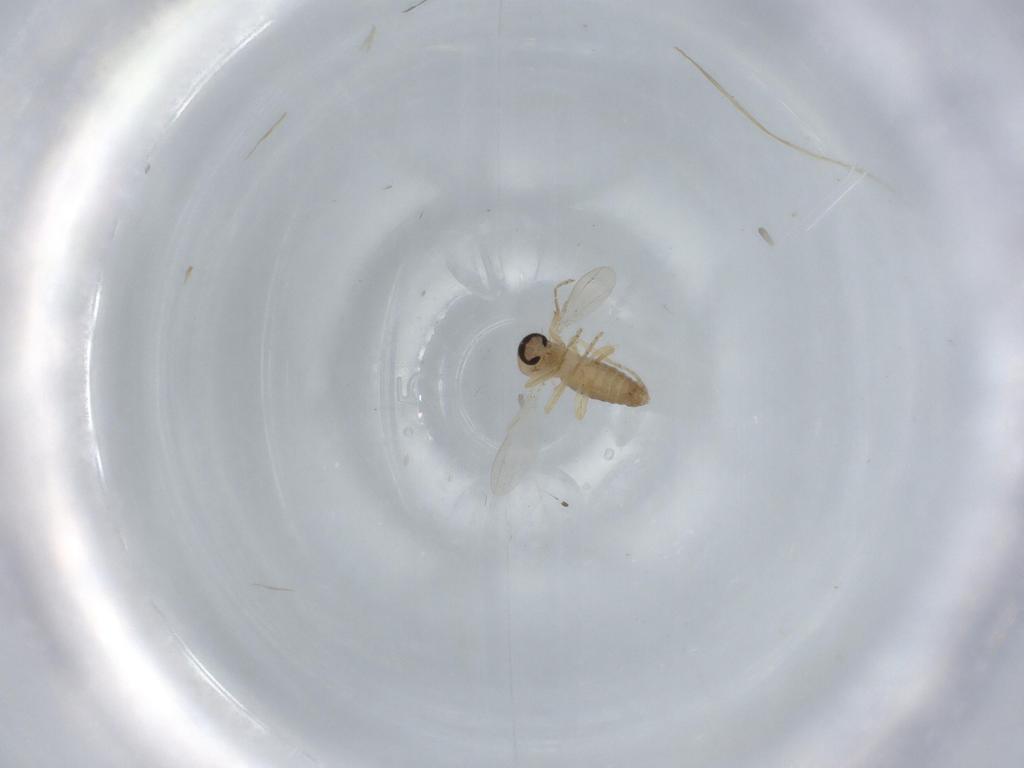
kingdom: Animalia
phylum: Arthropoda
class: Insecta
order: Diptera
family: Ceratopogonidae
